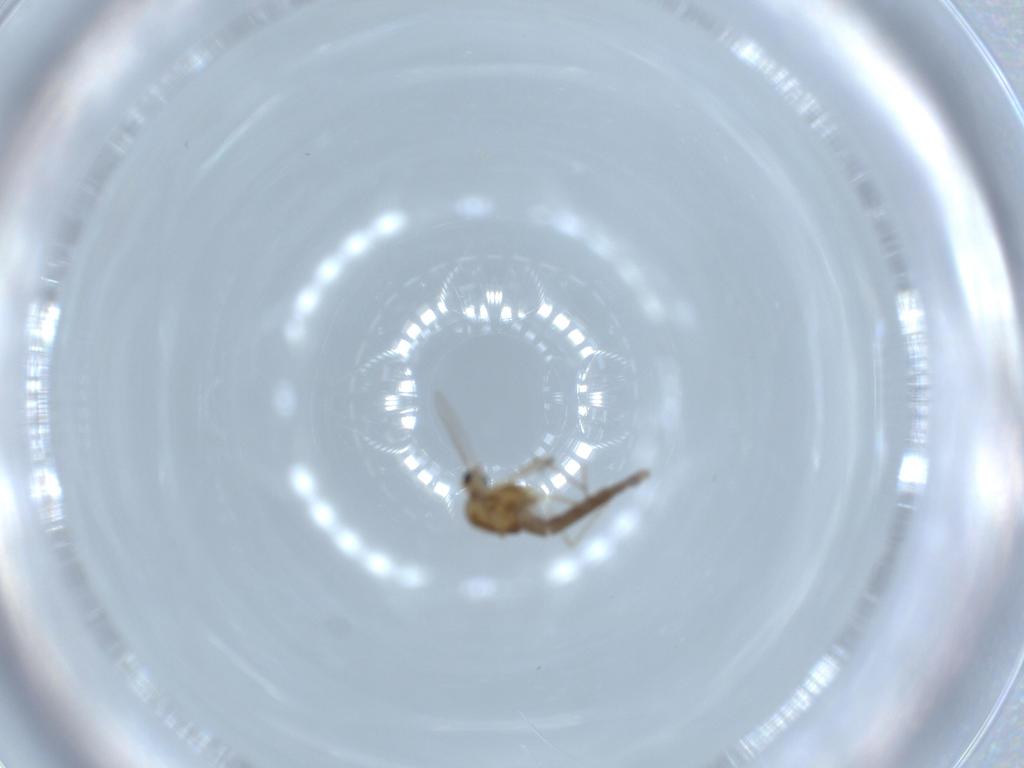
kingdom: Animalia
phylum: Arthropoda
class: Insecta
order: Diptera
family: Chironomidae
